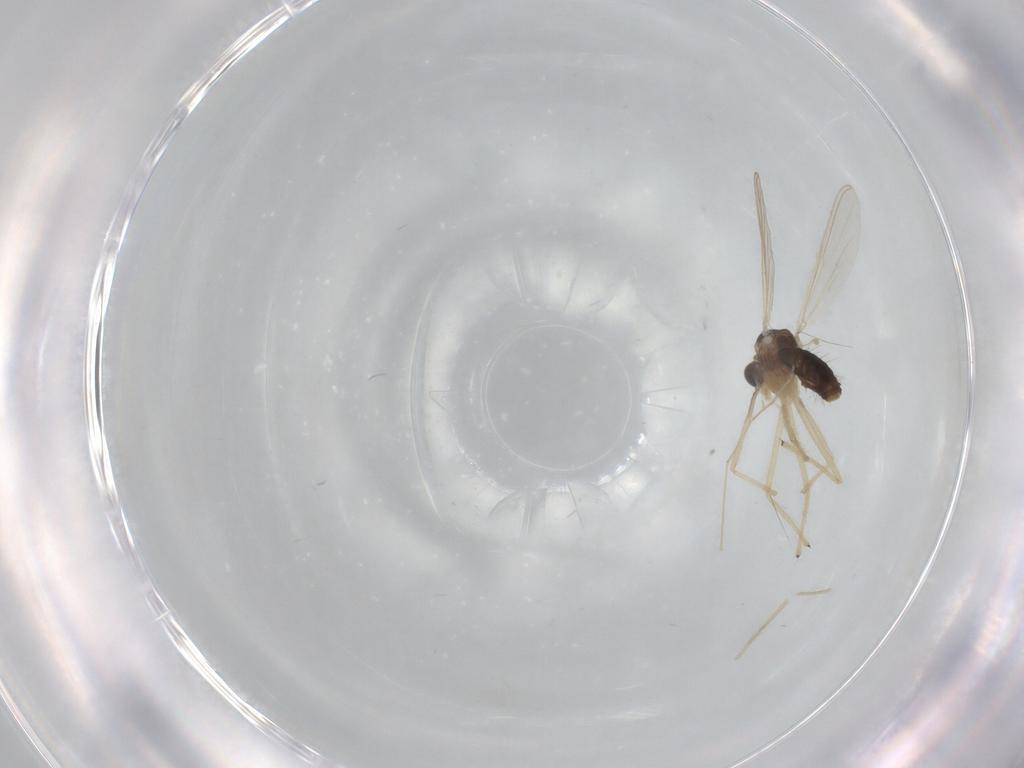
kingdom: Animalia
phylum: Arthropoda
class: Insecta
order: Diptera
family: Chironomidae
